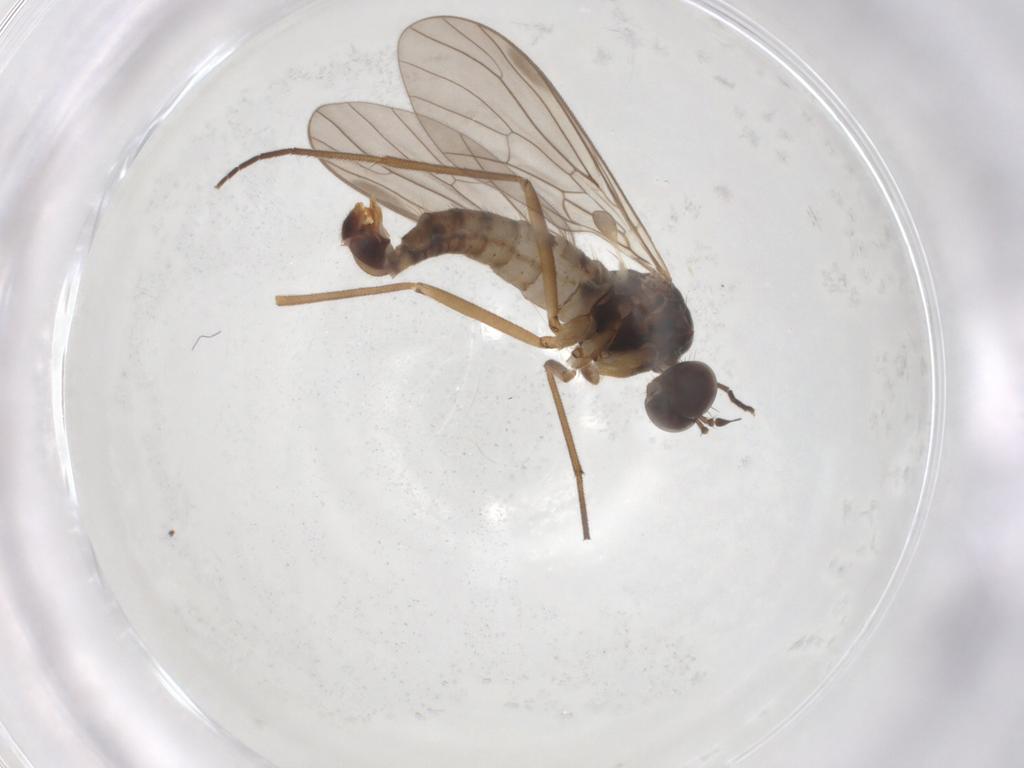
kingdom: Animalia
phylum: Arthropoda
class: Insecta
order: Diptera
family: Empididae
